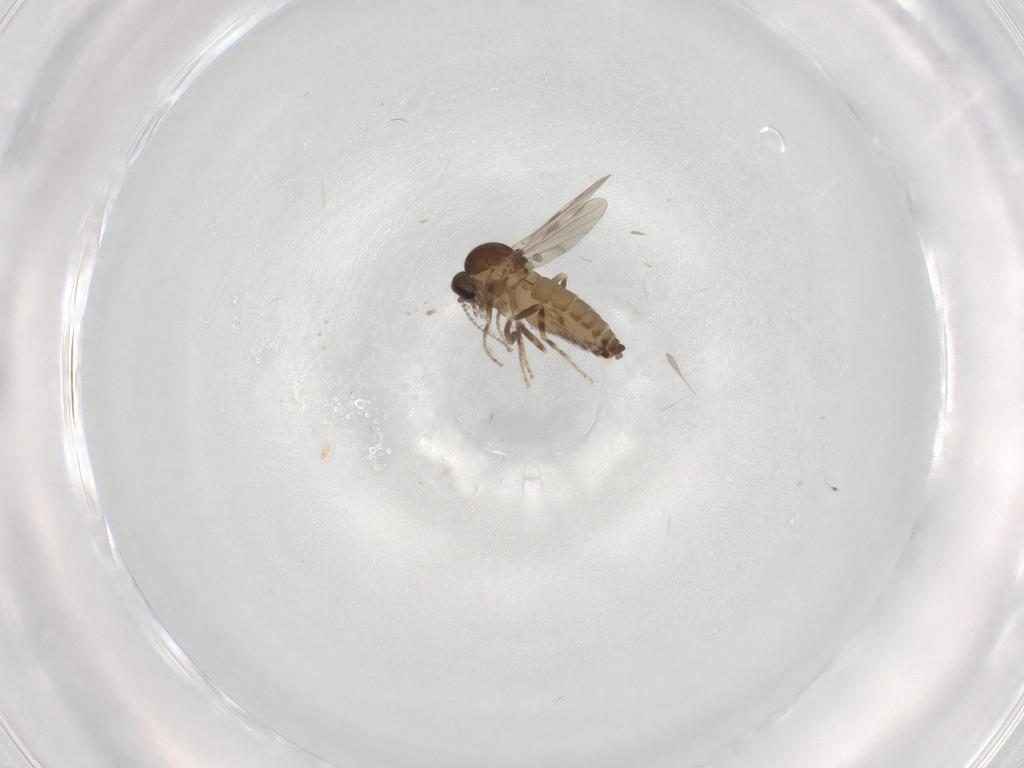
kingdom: Animalia
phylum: Arthropoda
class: Insecta
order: Diptera
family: Ceratopogonidae
